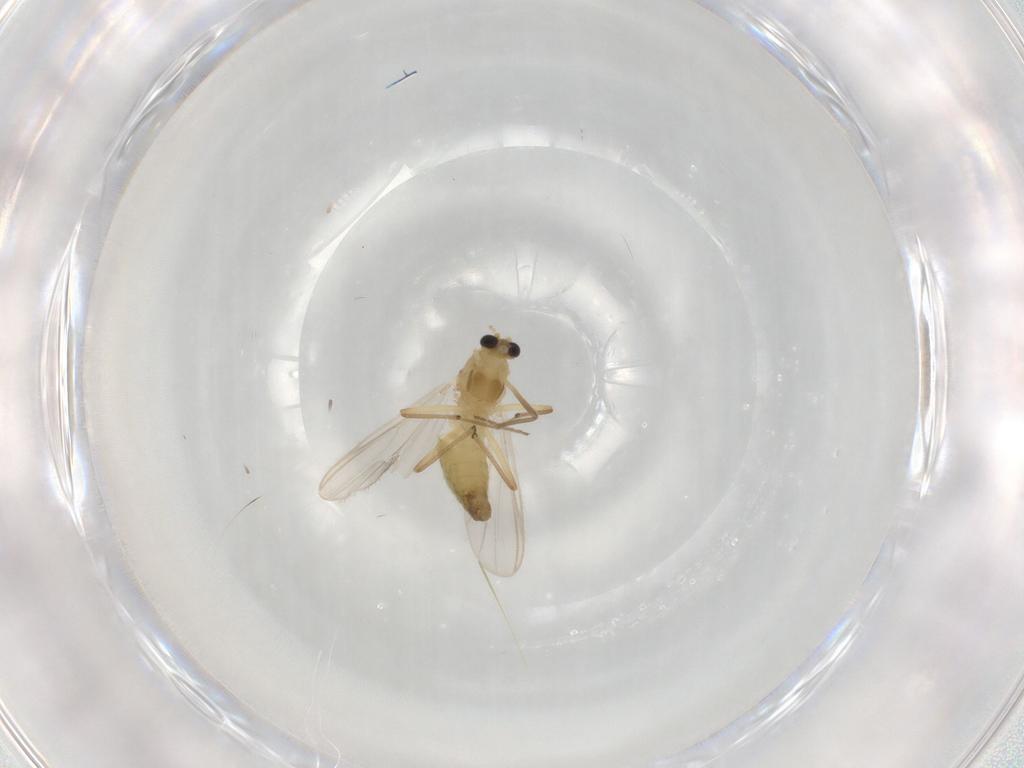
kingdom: Animalia
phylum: Arthropoda
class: Insecta
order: Diptera
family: Chironomidae
